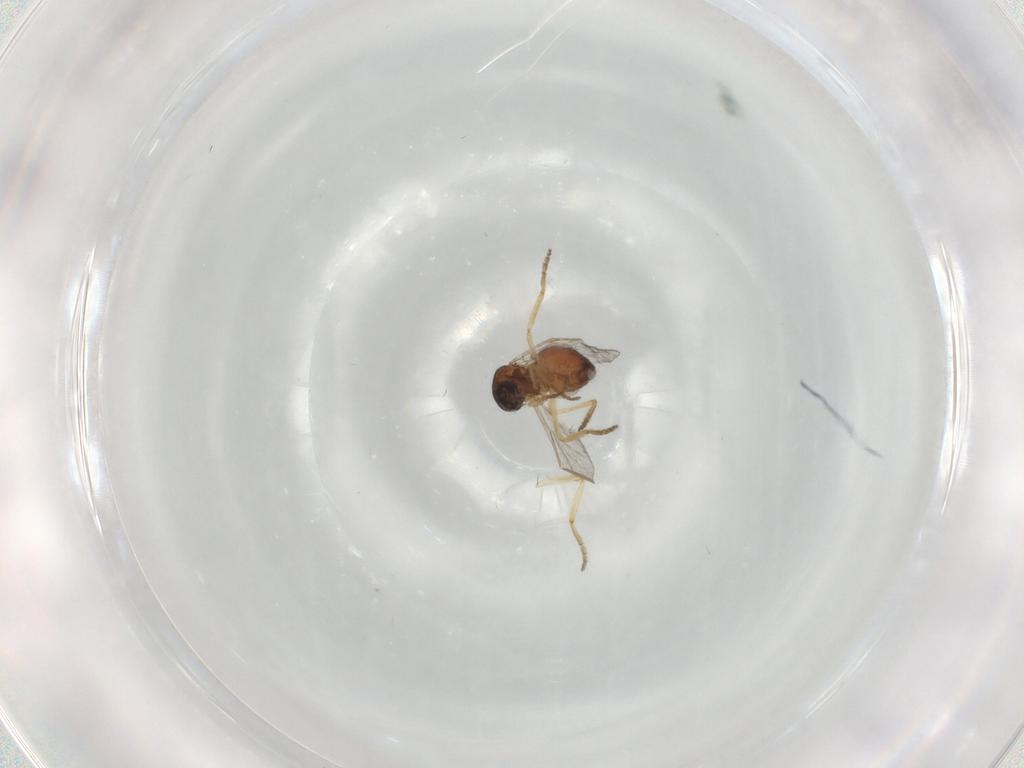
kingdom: Animalia
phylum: Arthropoda
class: Insecta
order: Diptera
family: Ceratopogonidae
